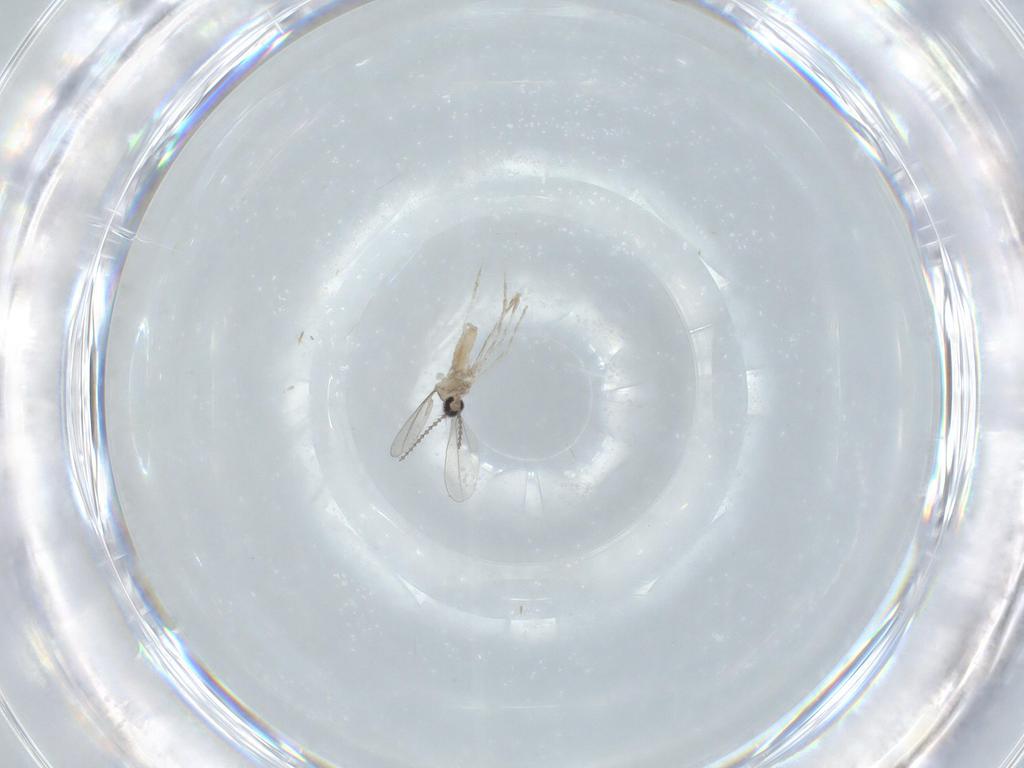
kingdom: Animalia
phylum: Arthropoda
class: Insecta
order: Diptera
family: Cecidomyiidae
